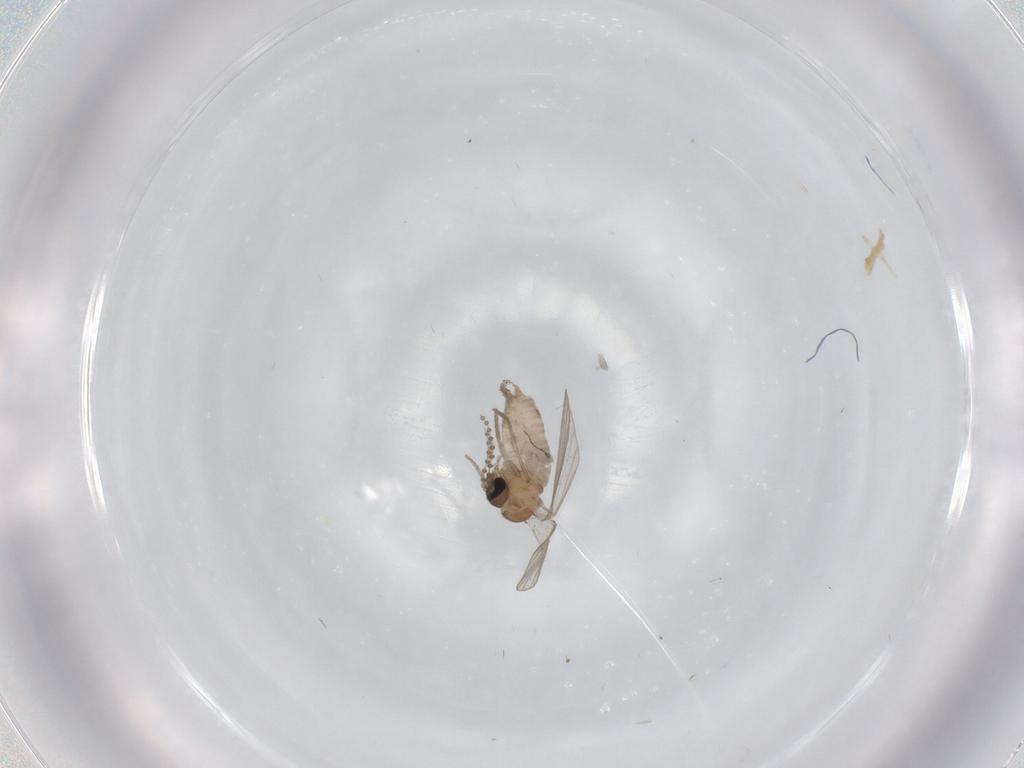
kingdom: Animalia
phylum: Arthropoda
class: Insecta
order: Diptera
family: Psychodidae
